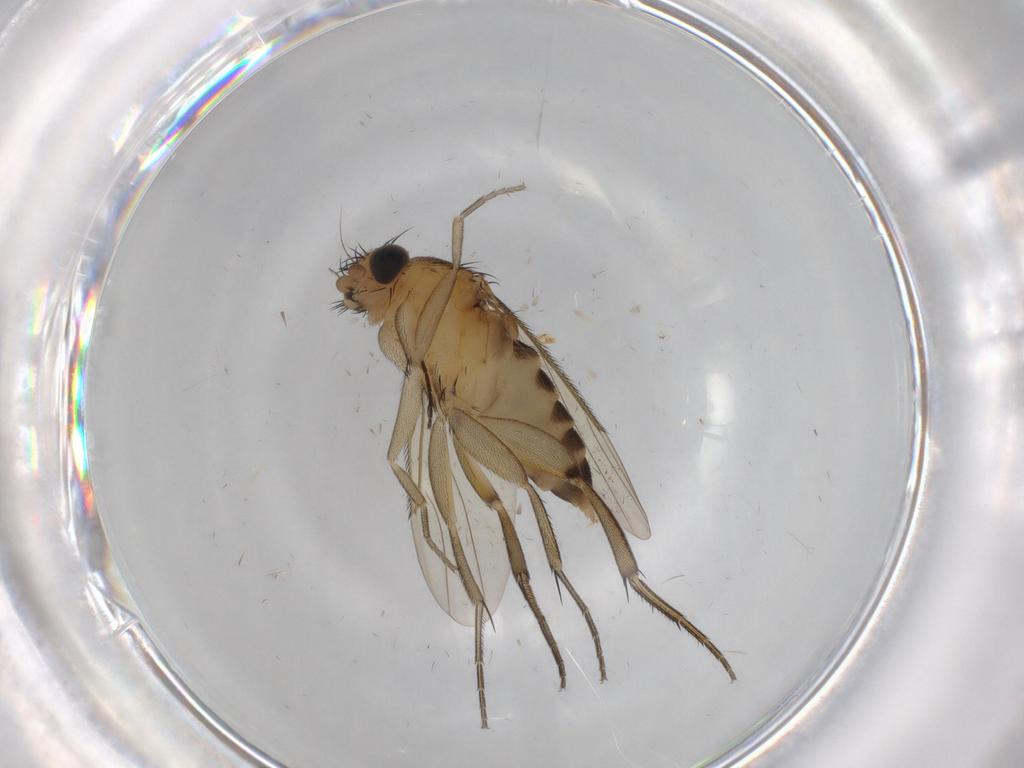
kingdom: Animalia
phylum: Arthropoda
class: Insecta
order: Diptera
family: Phoridae
